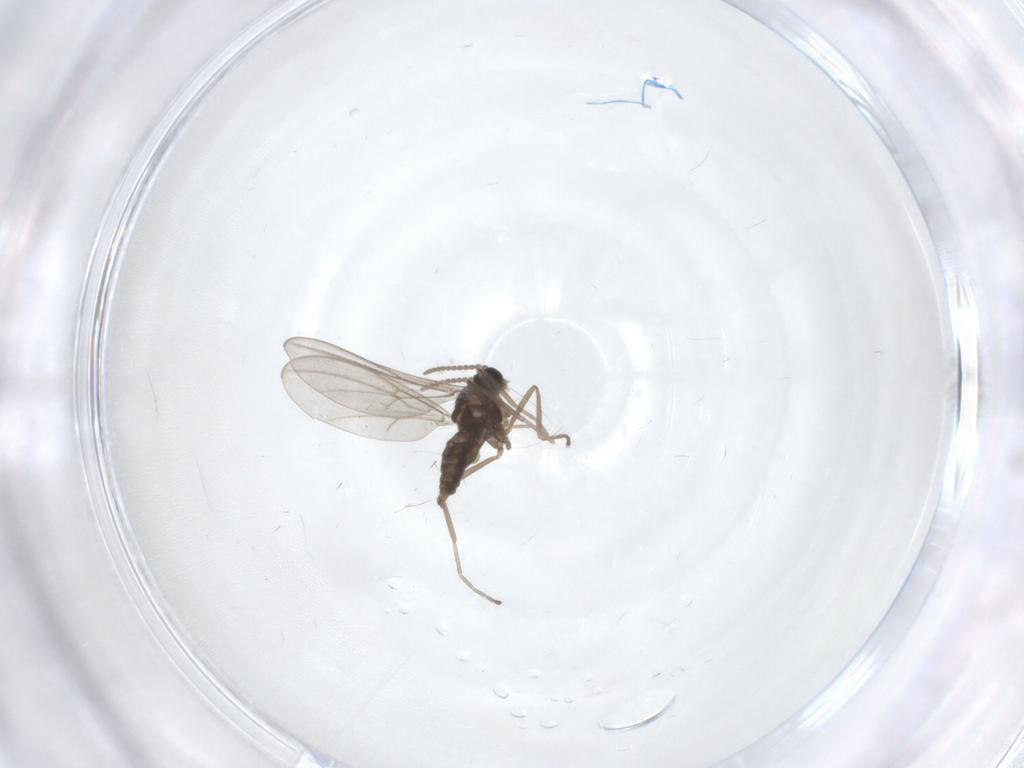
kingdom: Animalia
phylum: Arthropoda
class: Insecta
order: Diptera
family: Cecidomyiidae
